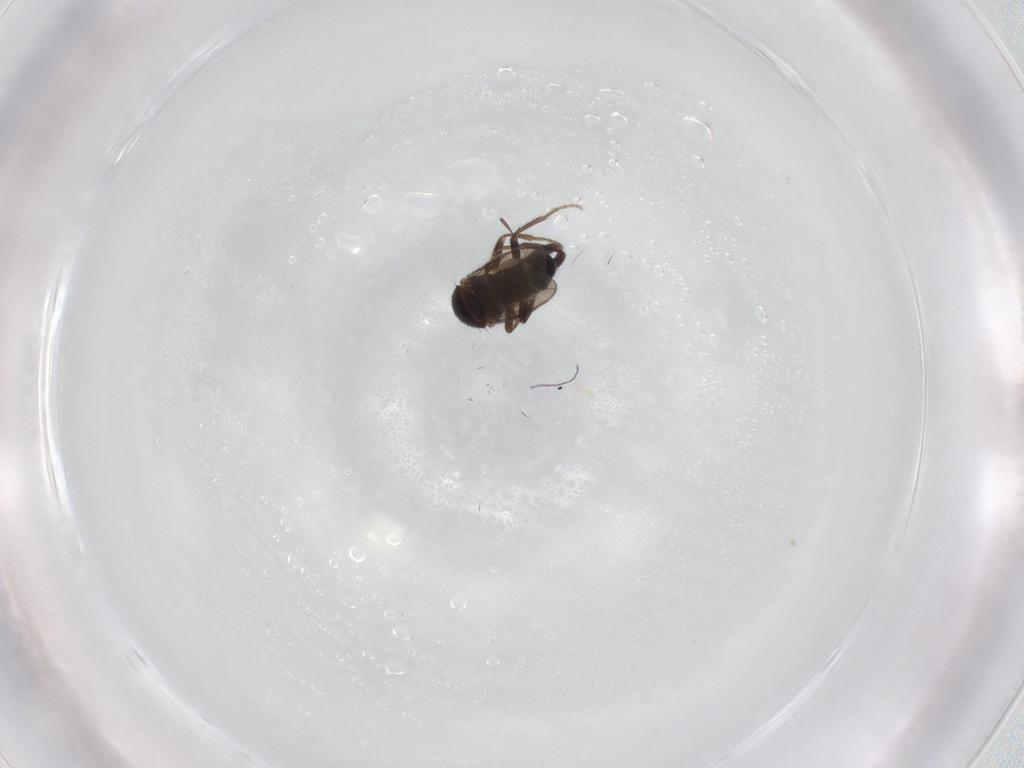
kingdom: Animalia
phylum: Arthropoda
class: Insecta
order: Diptera
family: Sphaeroceridae
